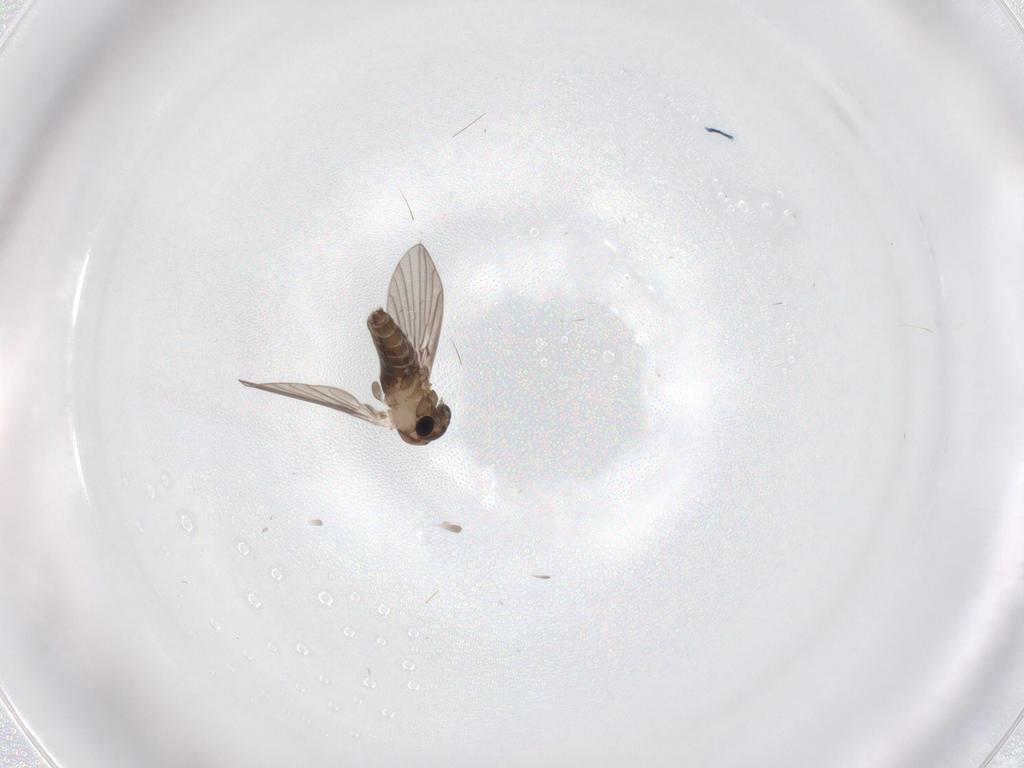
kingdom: Animalia
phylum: Arthropoda
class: Insecta
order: Diptera
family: Psychodidae
